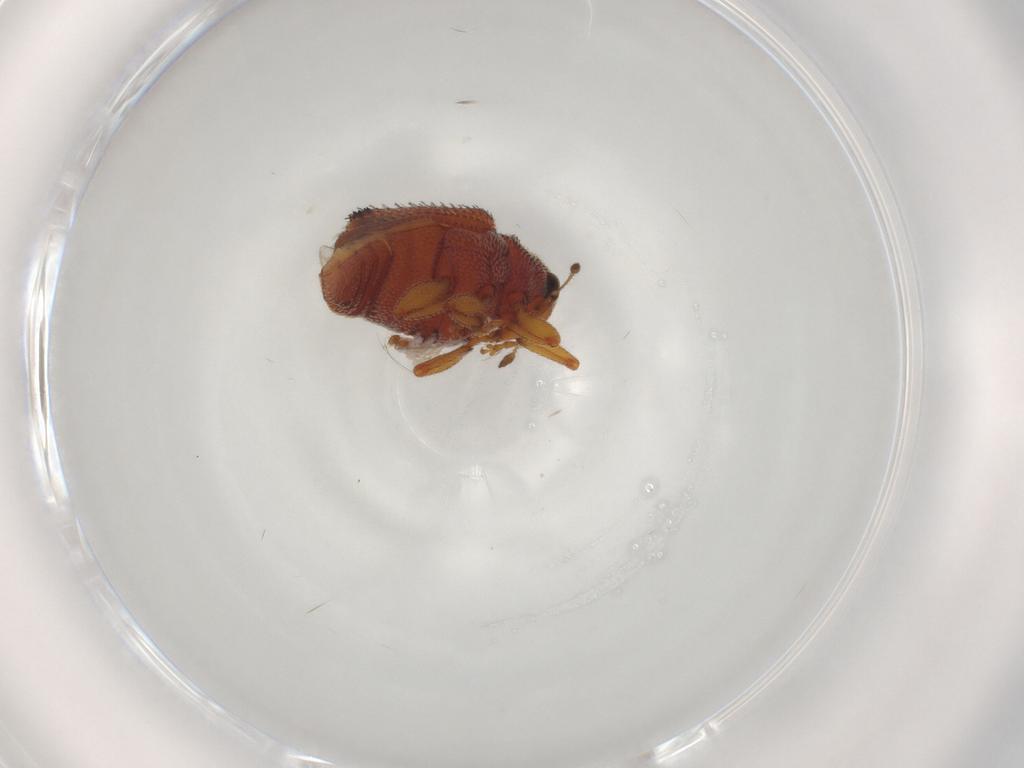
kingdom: Animalia
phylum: Arthropoda
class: Insecta
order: Coleoptera
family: Curculionidae
